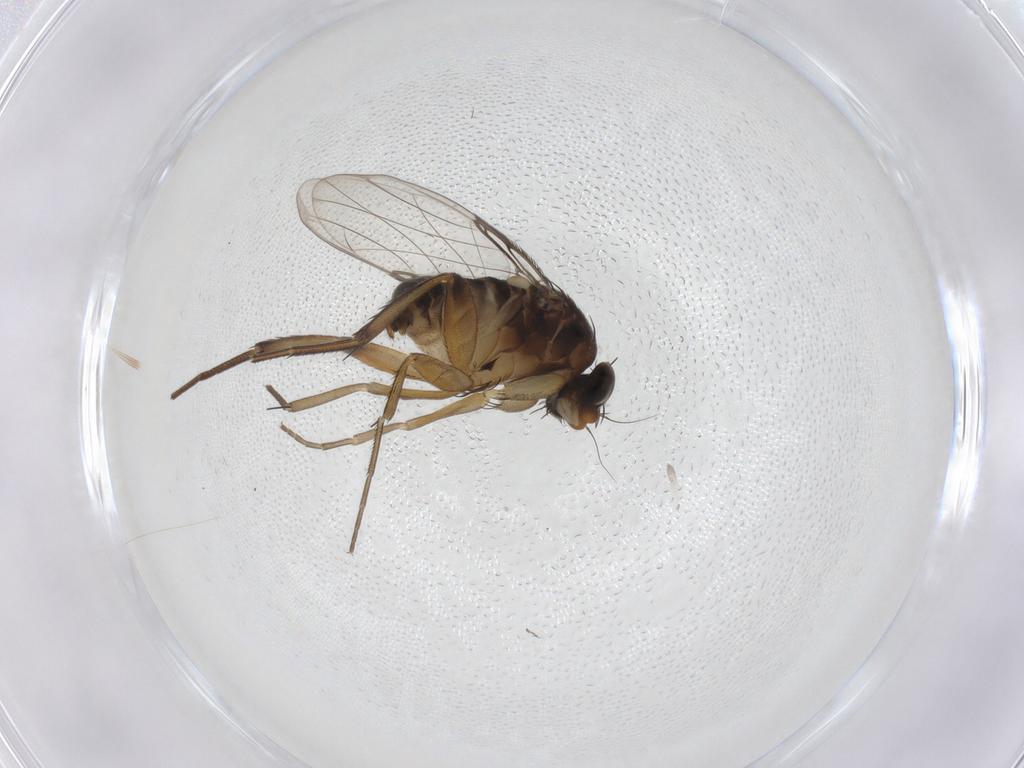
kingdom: Animalia
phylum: Arthropoda
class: Insecta
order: Diptera
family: Phoridae
